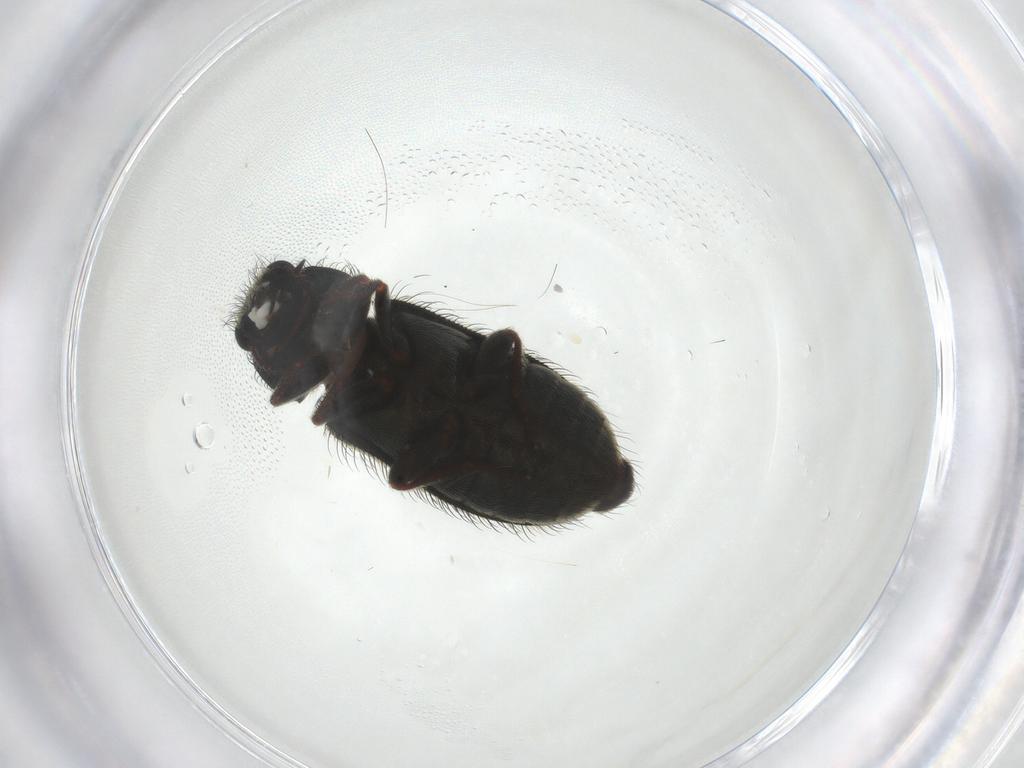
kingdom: Animalia
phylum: Arthropoda
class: Insecta
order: Coleoptera
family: Melyridae
